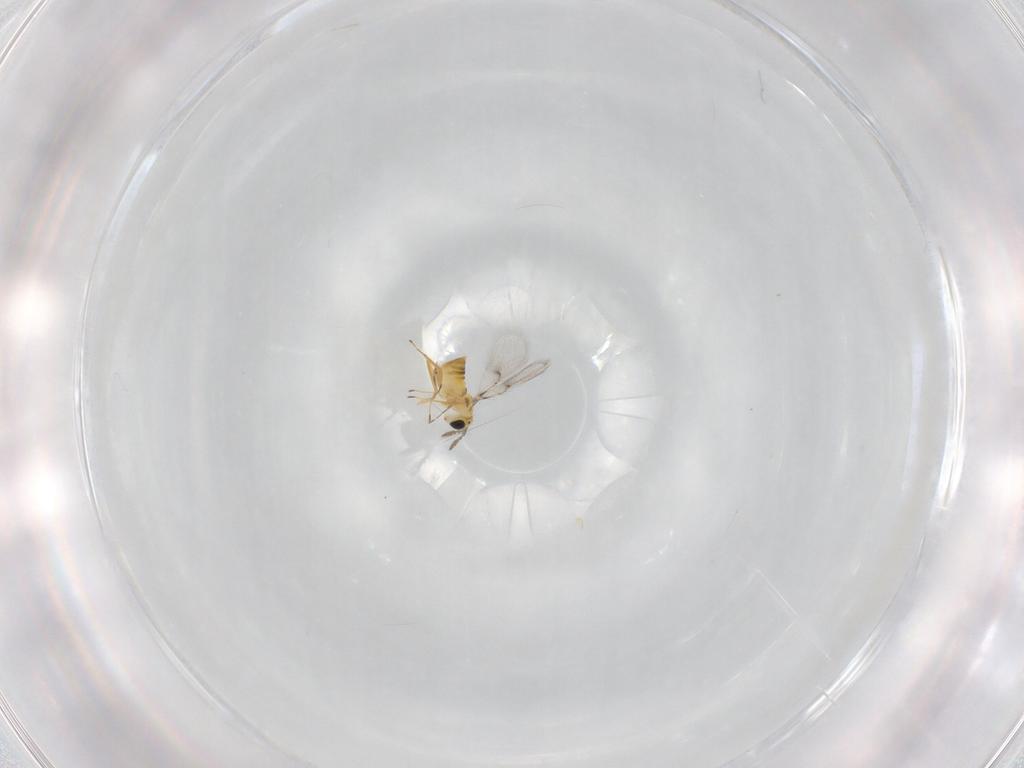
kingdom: Animalia
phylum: Arthropoda
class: Insecta
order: Hymenoptera
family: Trichogrammatidae
